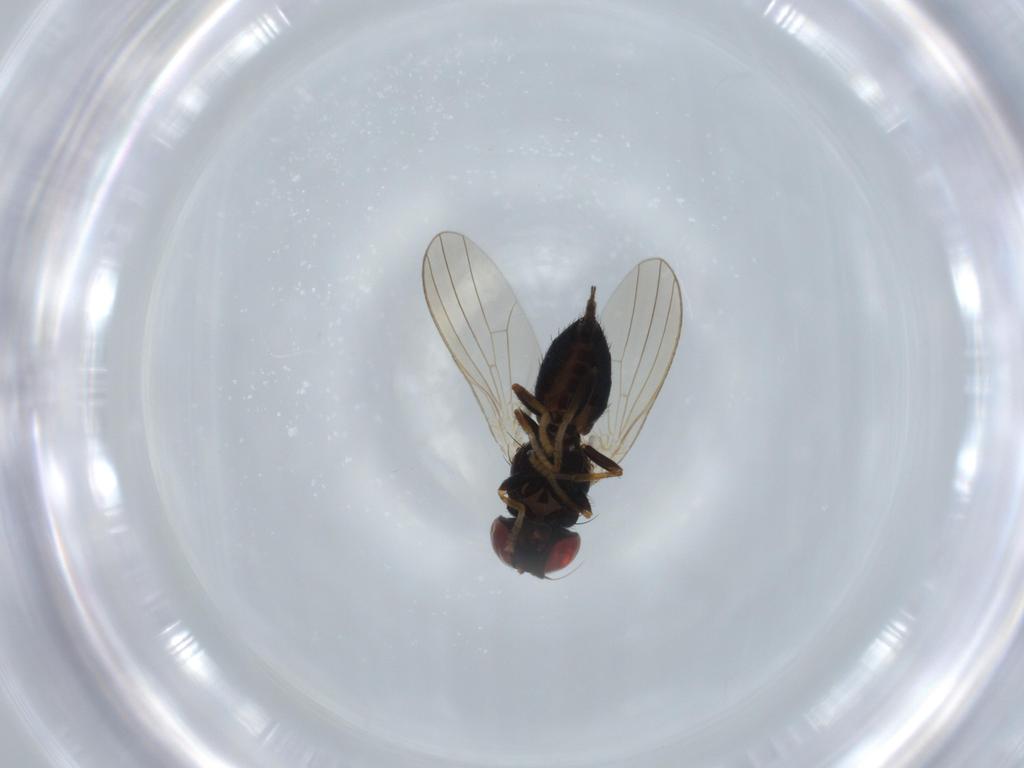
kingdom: Animalia
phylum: Arthropoda
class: Insecta
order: Diptera
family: Chamaemyiidae
